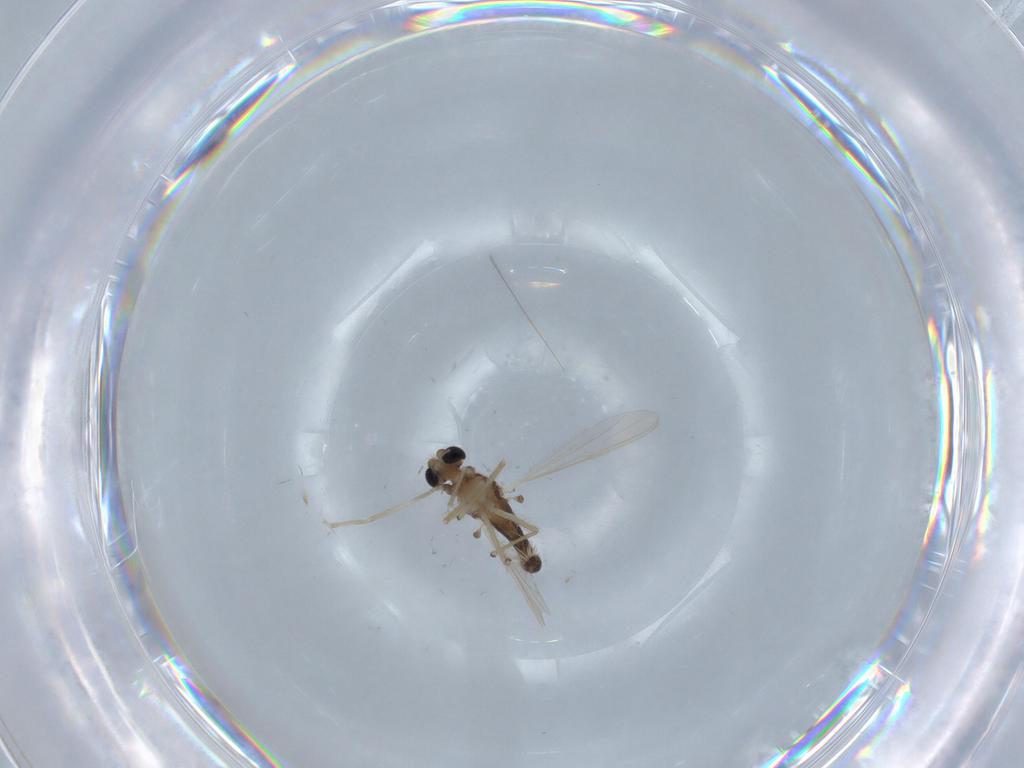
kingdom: Animalia
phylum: Arthropoda
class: Insecta
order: Diptera
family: Chironomidae
